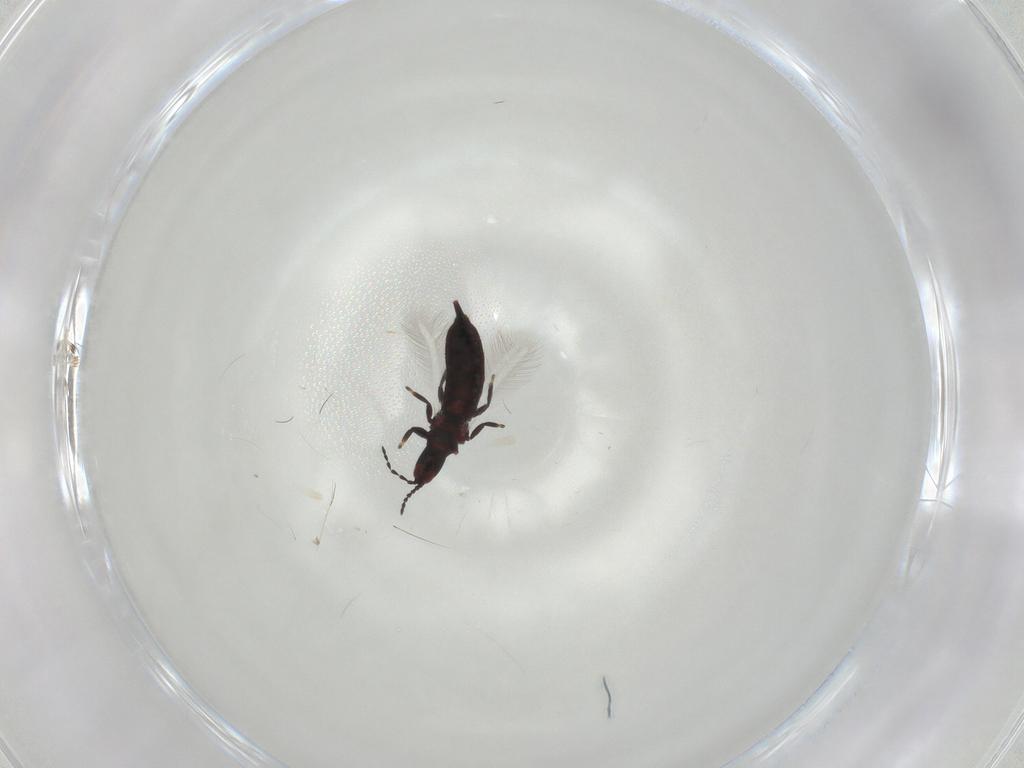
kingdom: Animalia
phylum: Arthropoda
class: Insecta
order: Thysanoptera
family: Phlaeothripidae
